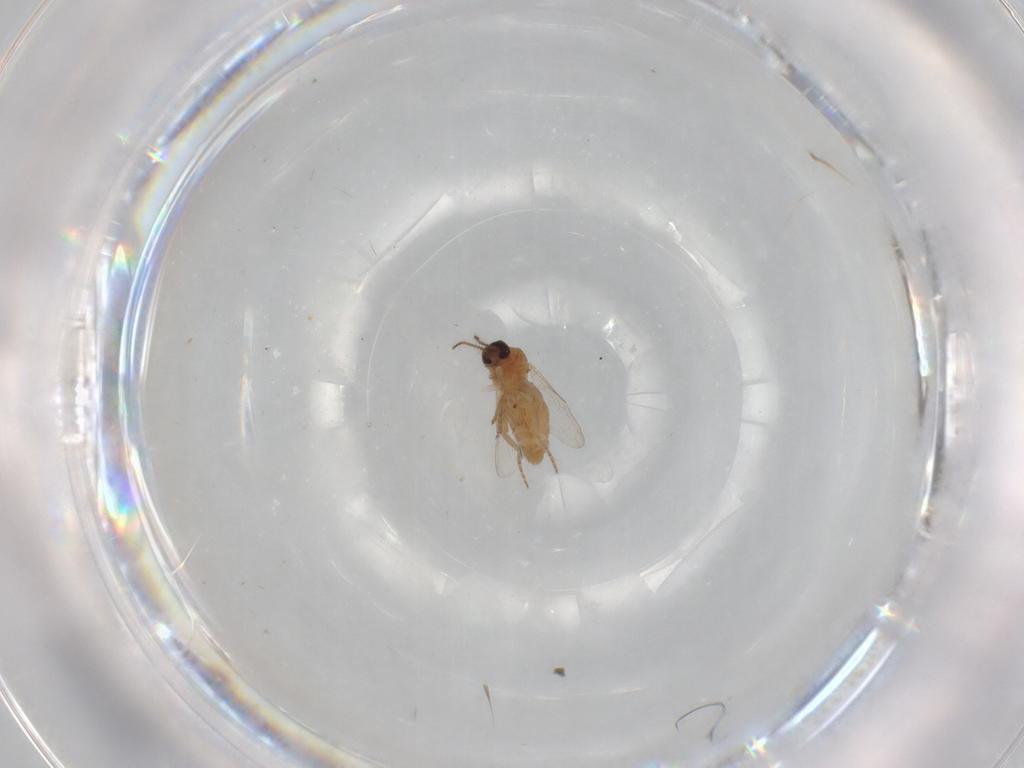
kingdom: Animalia
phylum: Arthropoda
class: Insecta
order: Diptera
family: Ceratopogonidae
